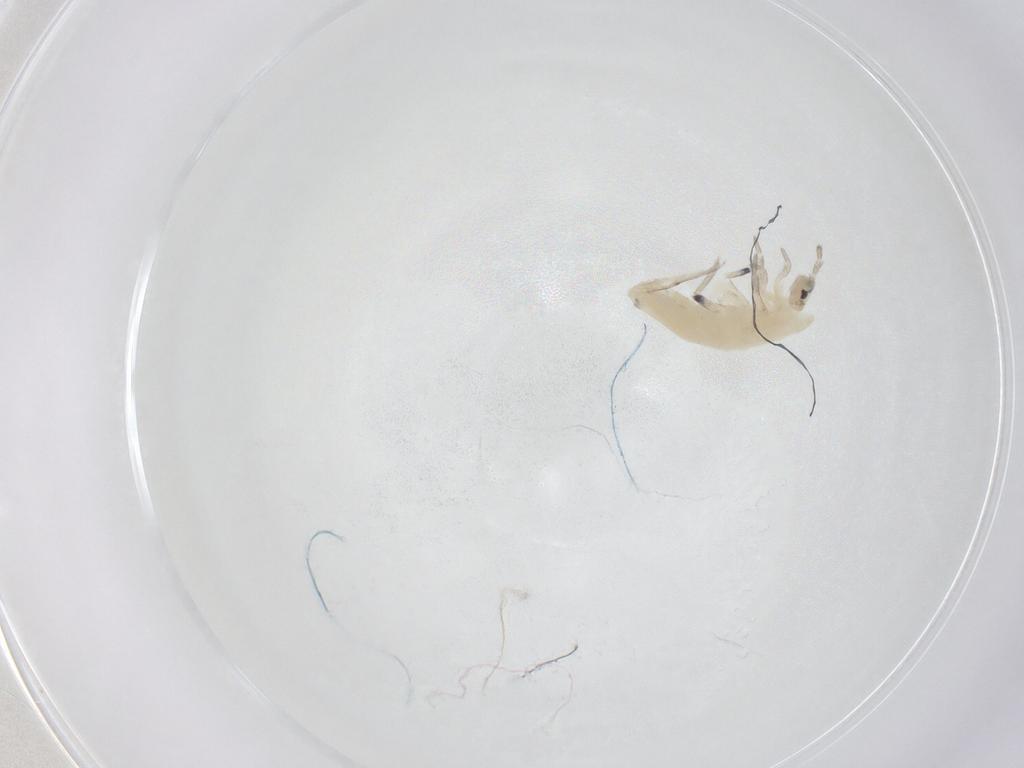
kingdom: Animalia
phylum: Arthropoda
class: Collembola
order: Entomobryomorpha
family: Entomobryidae
